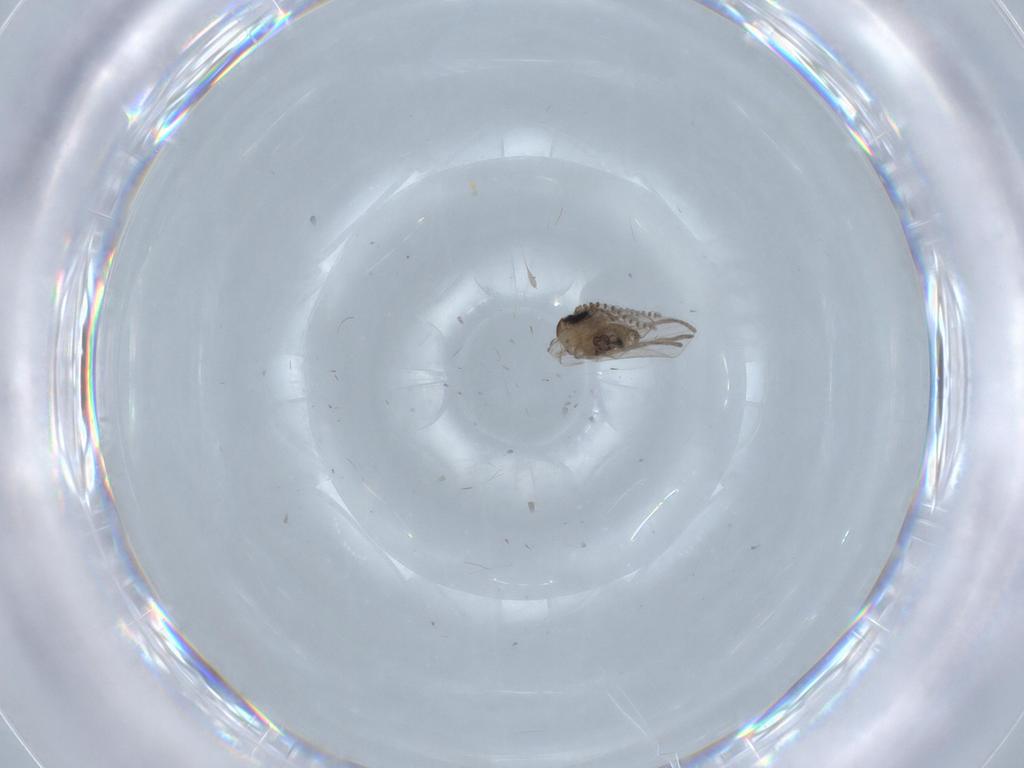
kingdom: Animalia
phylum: Arthropoda
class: Insecta
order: Diptera
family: Psychodidae
